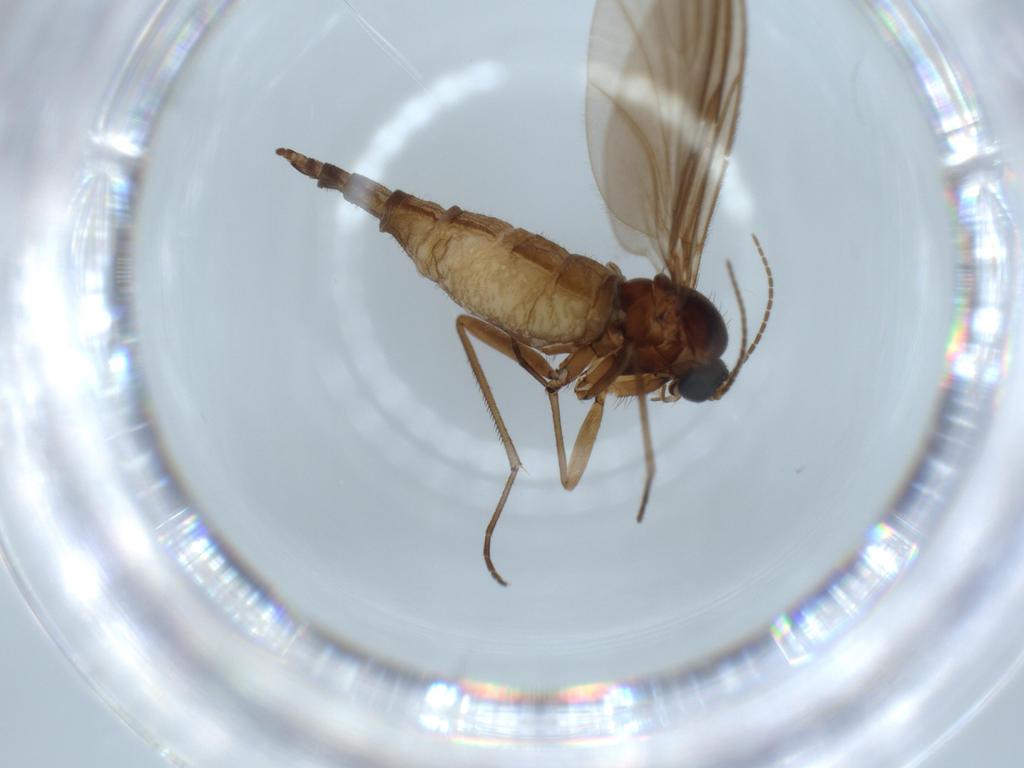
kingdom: Animalia
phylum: Arthropoda
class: Insecta
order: Diptera
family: Sciaridae
